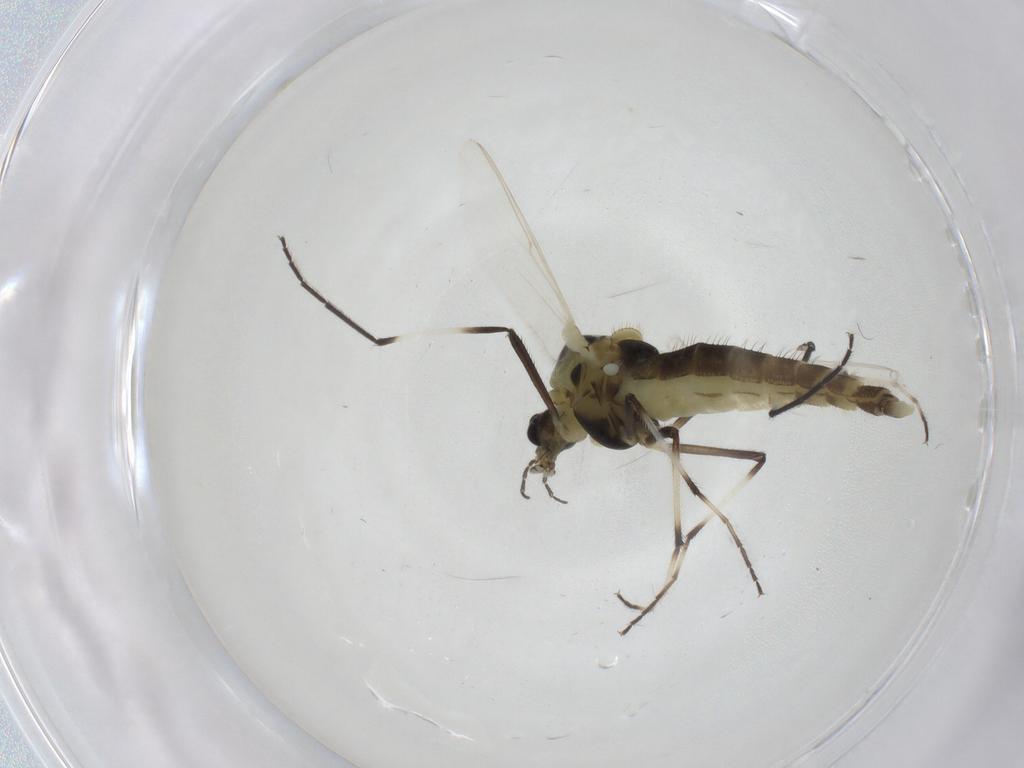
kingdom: Animalia
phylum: Arthropoda
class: Insecta
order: Diptera
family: Chironomidae
